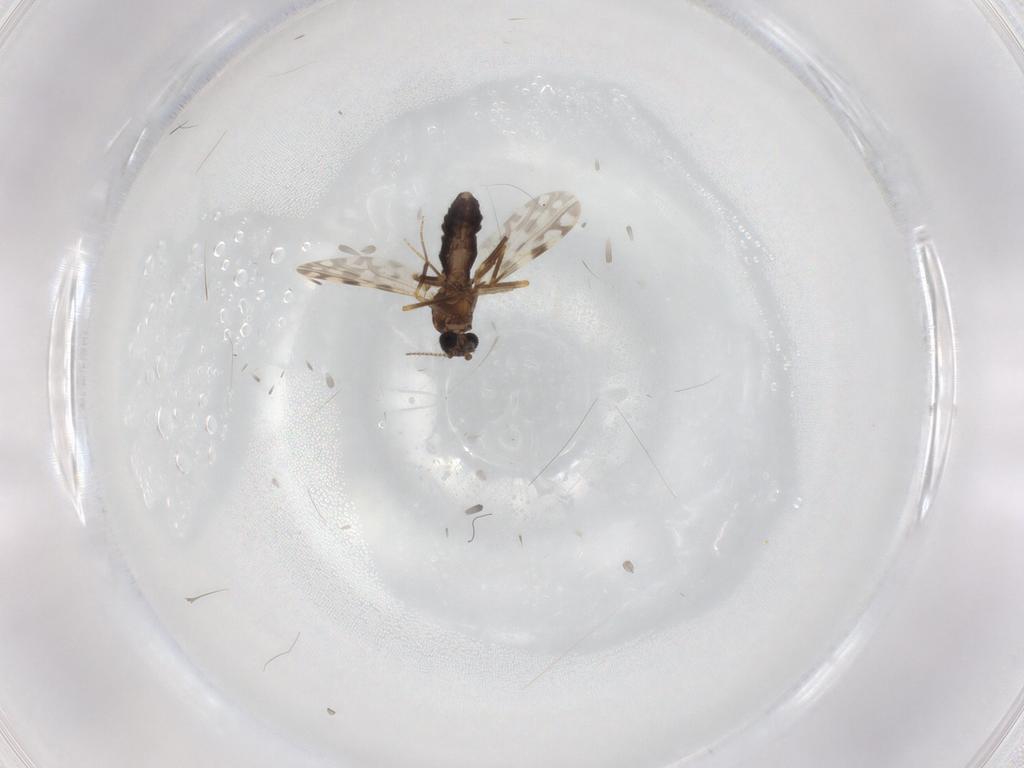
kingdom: Animalia
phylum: Arthropoda
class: Insecta
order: Diptera
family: Ceratopogonidae
